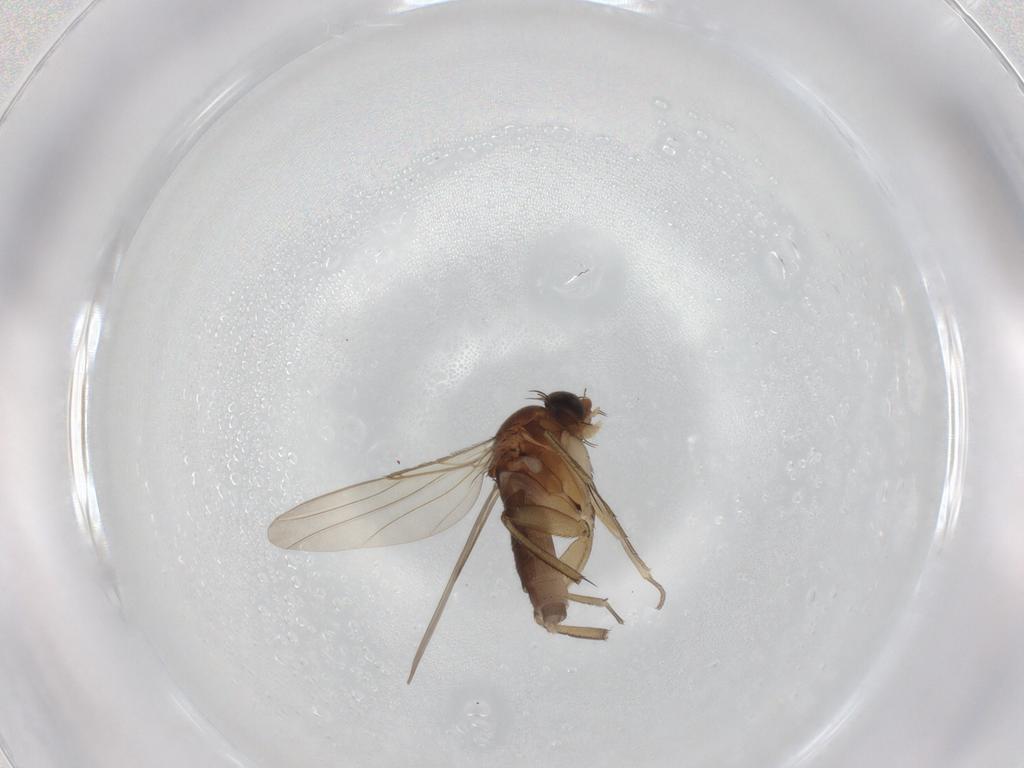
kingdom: Animalia
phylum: Arthropoda
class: Insecta
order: Diptera
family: Phoridae
